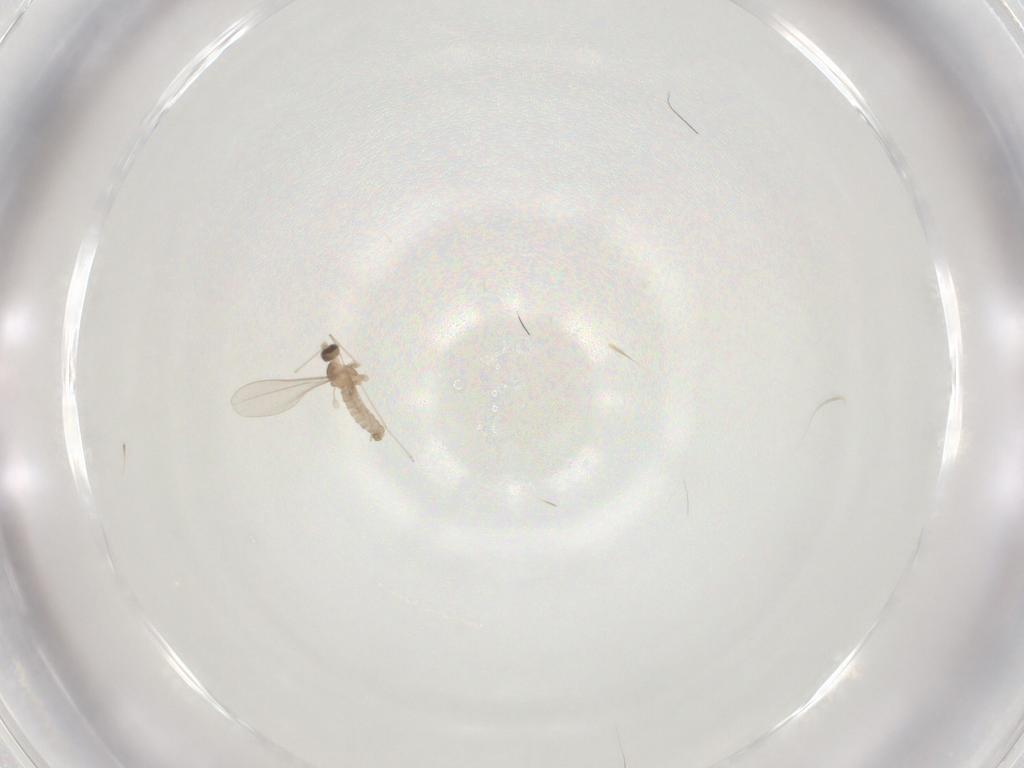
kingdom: Animalia
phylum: Arthropoda
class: Insecta
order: Diptera
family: Cecidomyiidae
